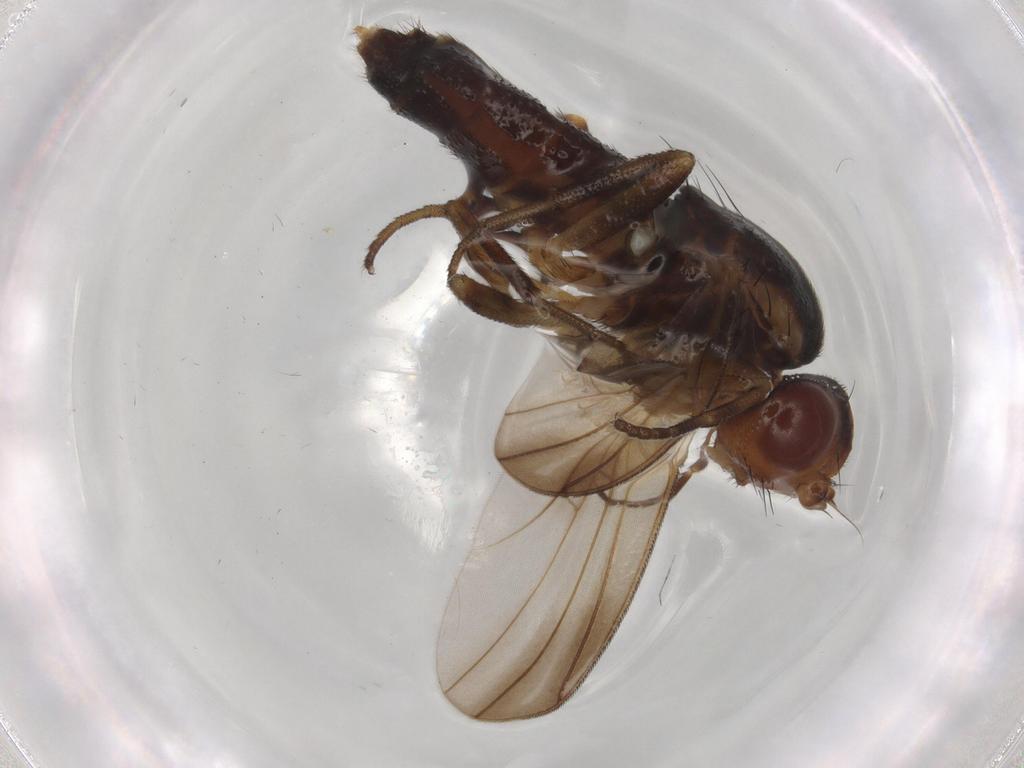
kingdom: Animalia
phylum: Arthropoda
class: Insecta
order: Diptera
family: Clusiidae
